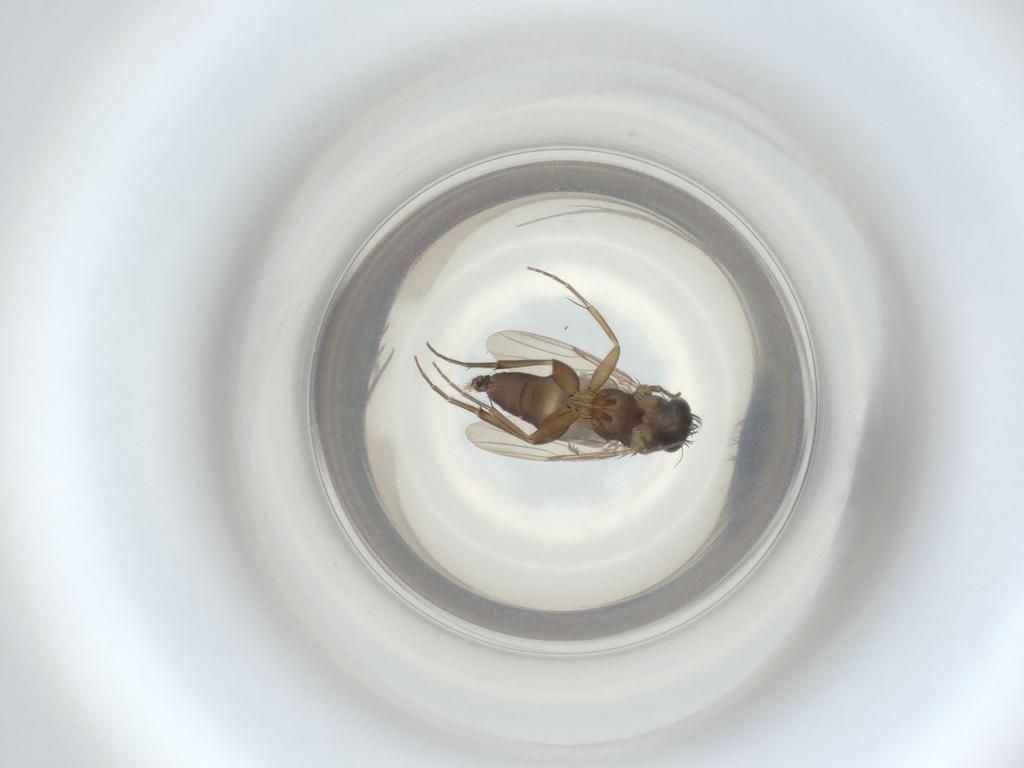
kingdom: Animalia
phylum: Arthropoda
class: Insecta
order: Diptera
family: Phoridae
